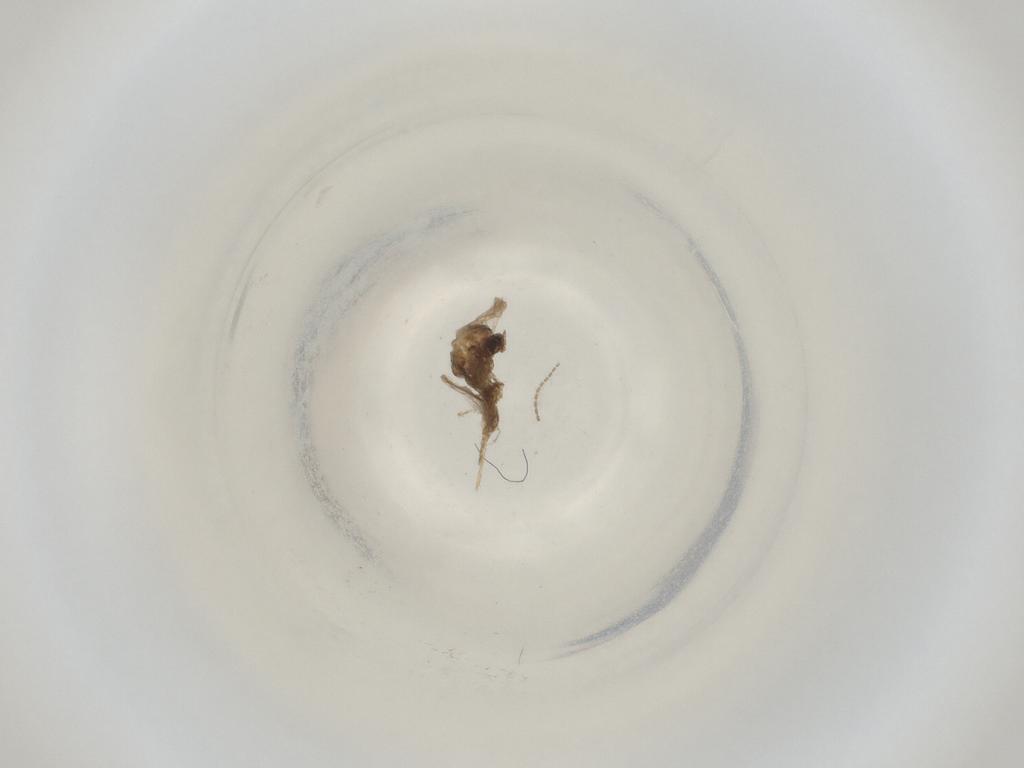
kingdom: Animalia
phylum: Arthropoda
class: Insecta
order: Diptera
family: Cecidomyiidae
